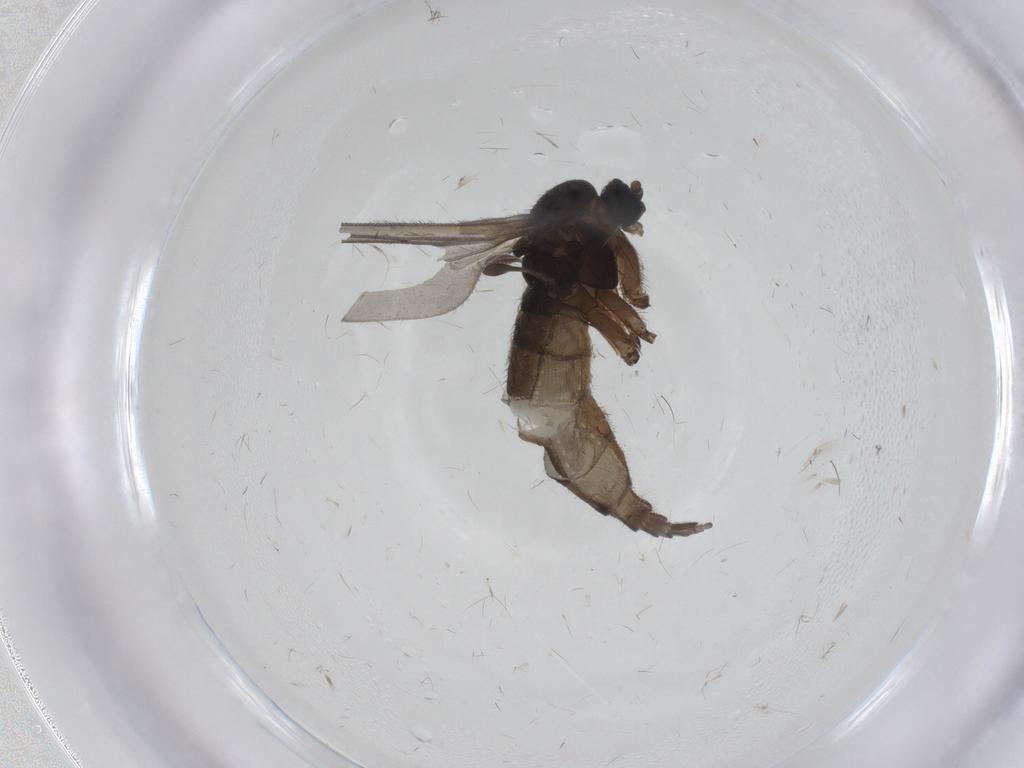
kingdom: Animalia
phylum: Arthropoda
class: Insecta
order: Diptera
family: Sciaridae
